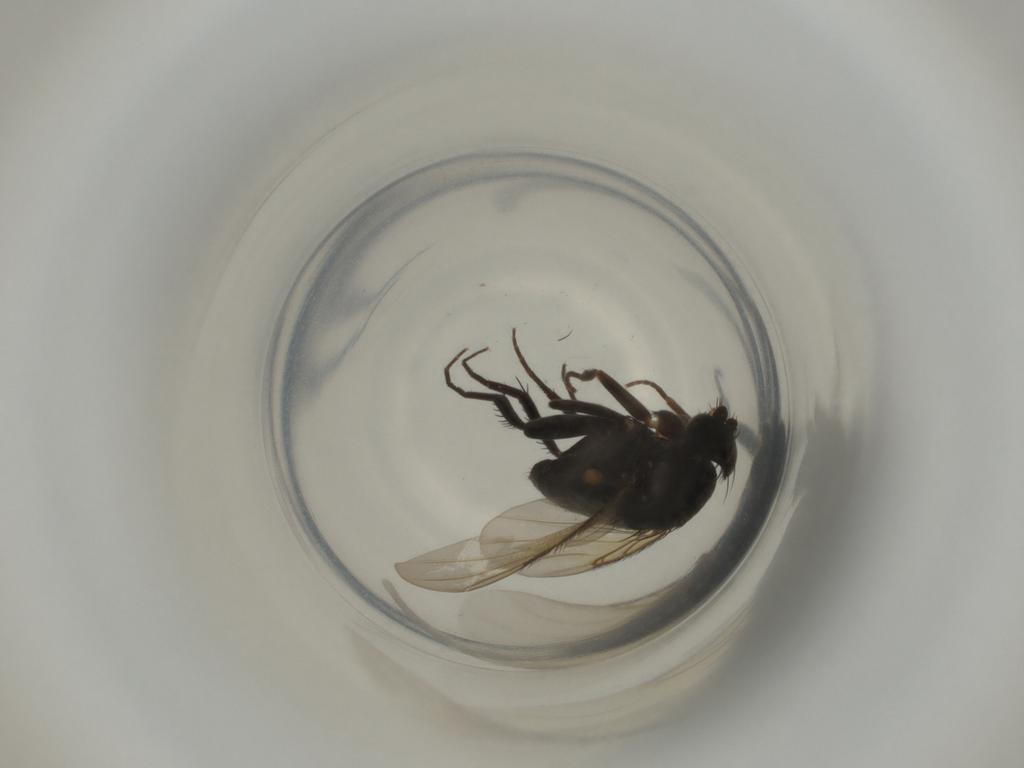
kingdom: Animalia
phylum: Arthropoda
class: Insecta
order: Diptera
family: Phoridae
